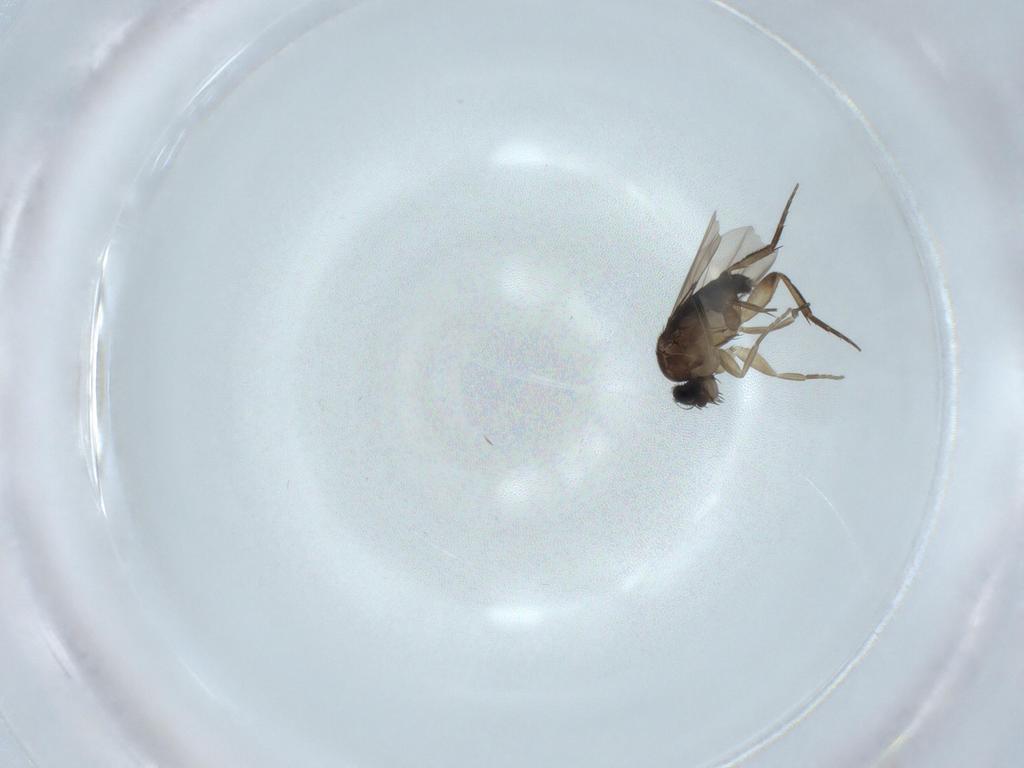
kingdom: Animalia
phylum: Arthropoda
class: Insecta
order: Diptera
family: Phoridae
